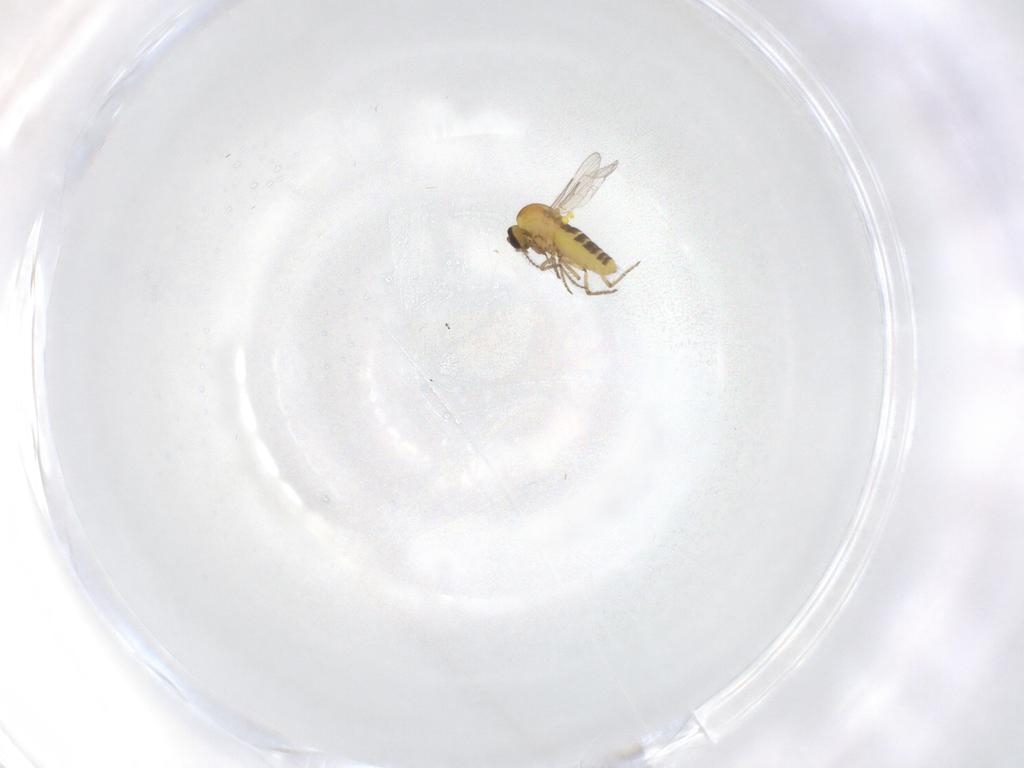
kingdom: Animalia
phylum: Arthropoda
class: Insecta
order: Diptera
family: Ceratopogonidae
